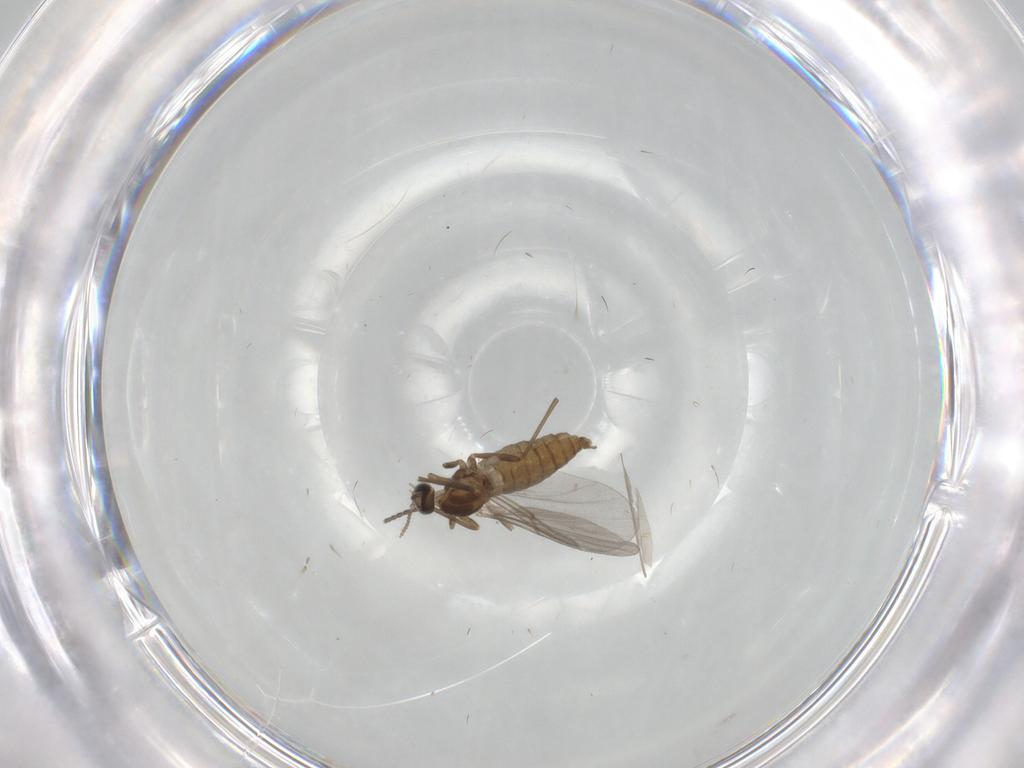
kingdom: Animalia
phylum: Arthropoda
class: Insecta
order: Diptera
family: Cecidomyiidae
